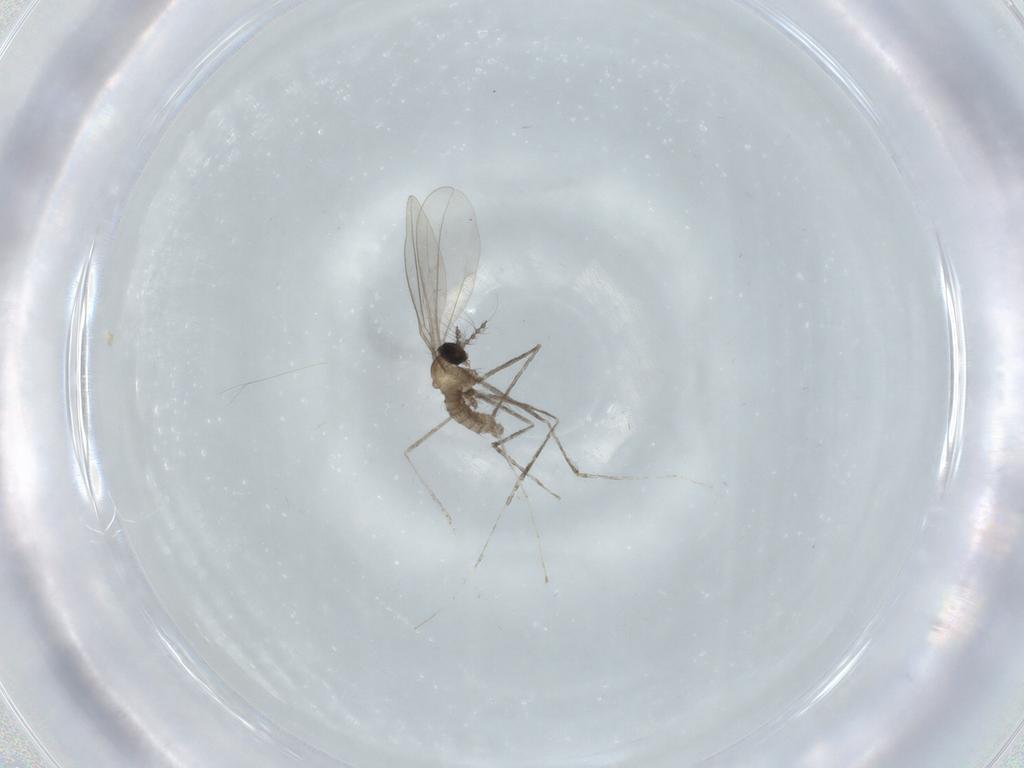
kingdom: Animalia
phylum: Arthropoda
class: Insecta
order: Diptera
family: Cecidomyiidae
